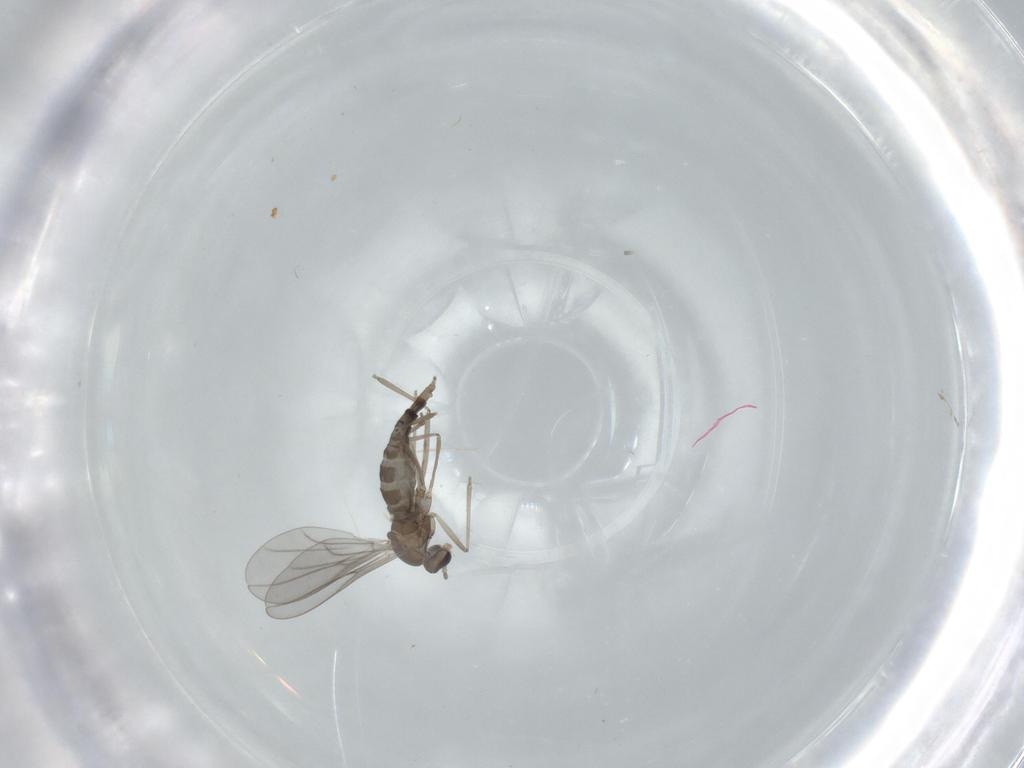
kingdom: Animalia
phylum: Arthropoda
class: Insecta
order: Diptera
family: Cecidomyiidae
